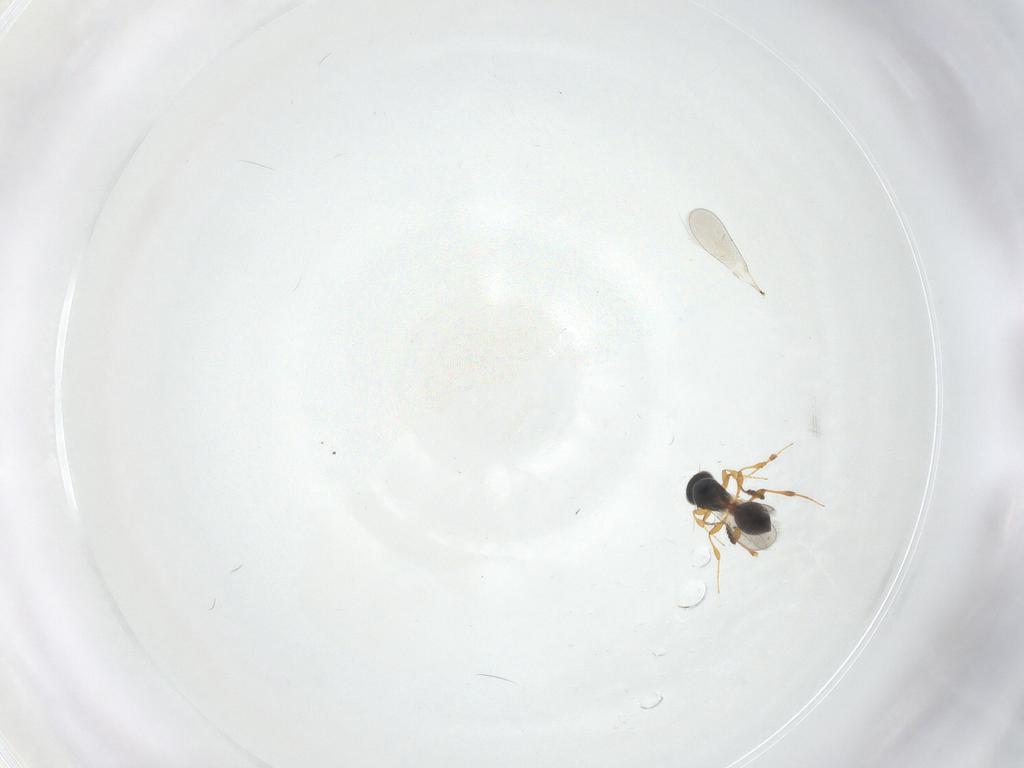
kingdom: Animalia
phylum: Arthropoda
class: Insecta
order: Hymenoptera
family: Platygastridae
